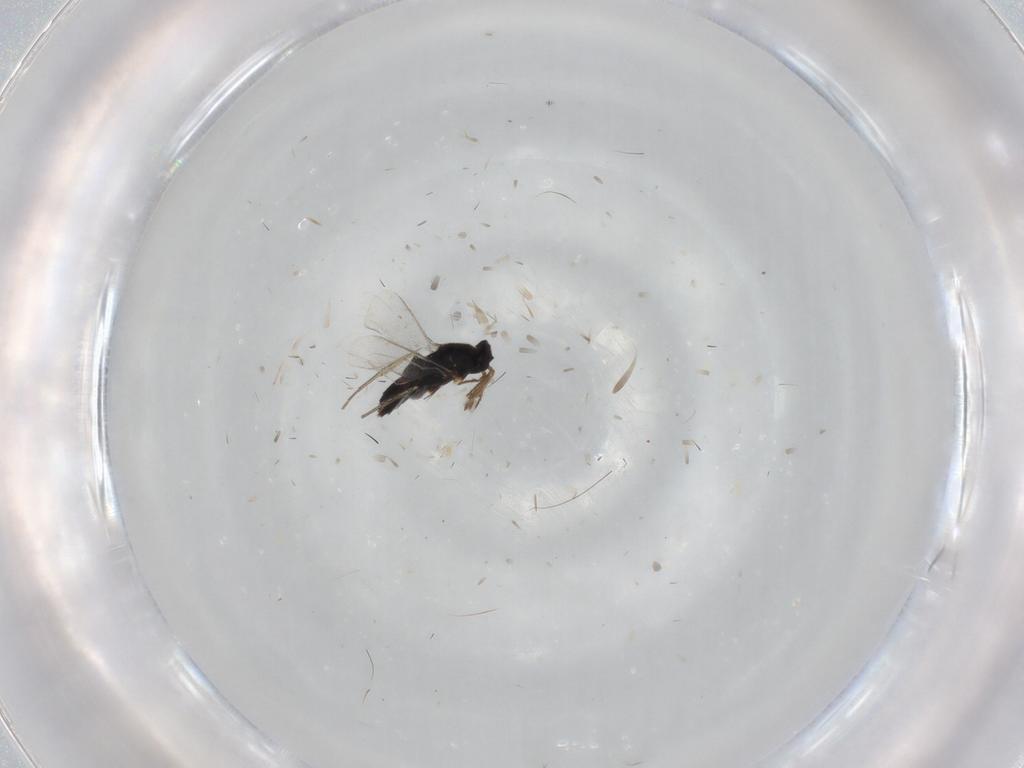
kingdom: Animalia
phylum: Arthropoda
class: Insecta
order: Hymenoptera
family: Eulophidae
